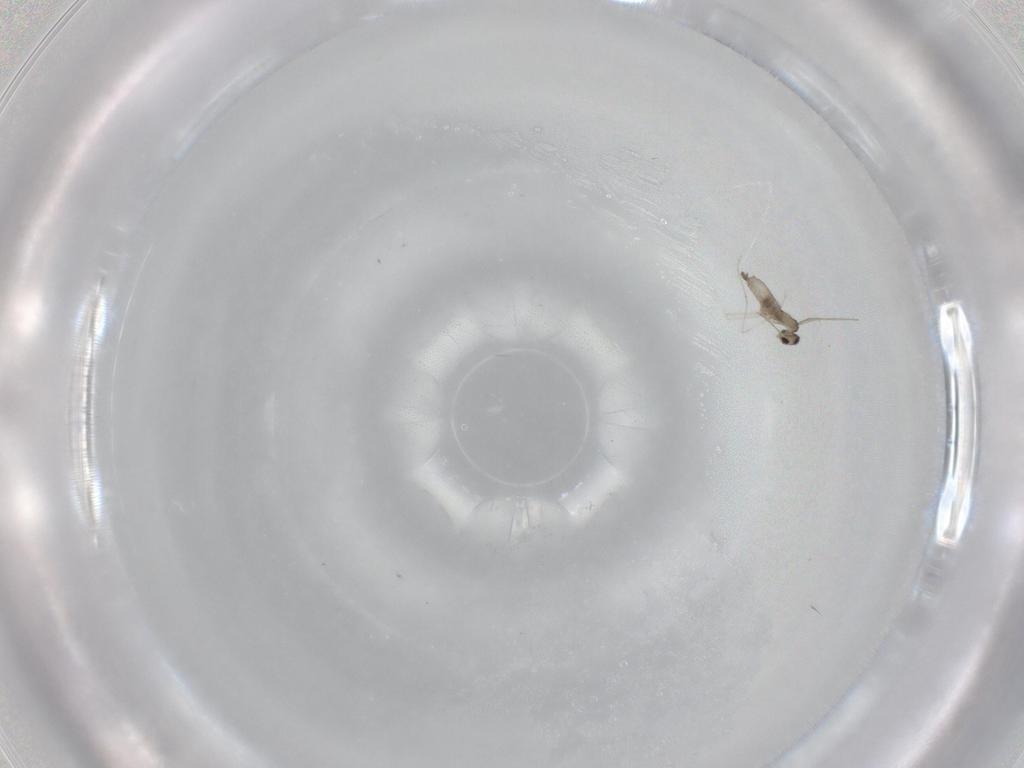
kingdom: Animalia
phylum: Arthropoda
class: Insecta
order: Diptera
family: Cecidomyiidae
